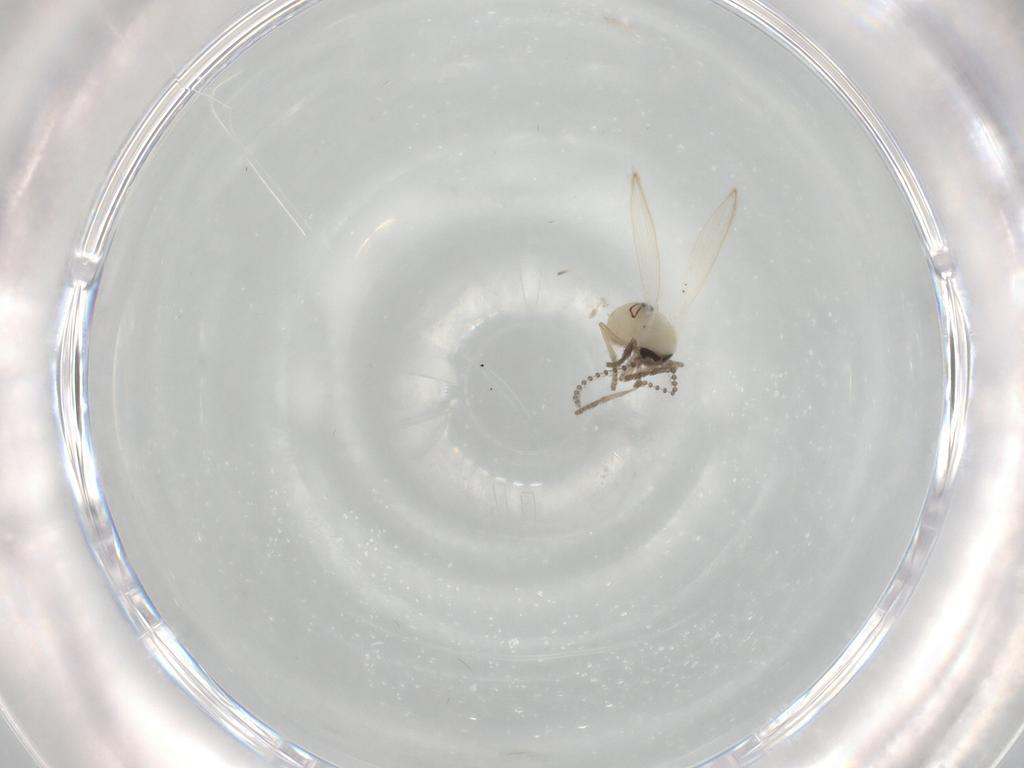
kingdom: Animalia
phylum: Arthropoda
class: Insecta
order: Diptera
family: Psychodidae
